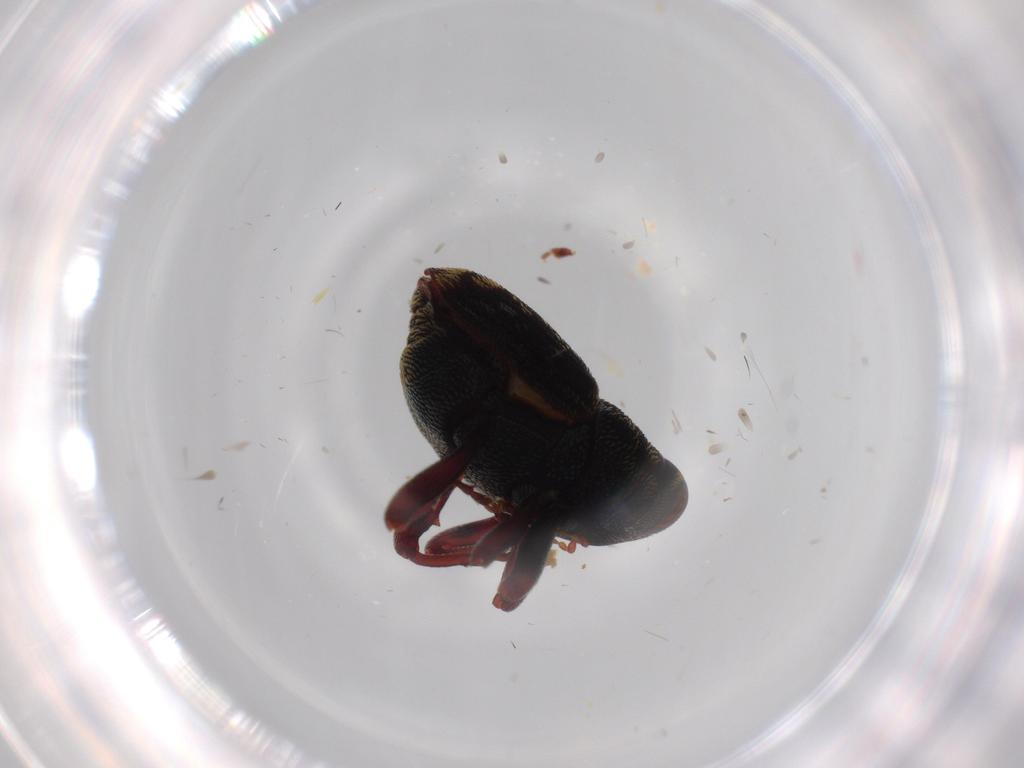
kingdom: Animalia
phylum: Arthropoda
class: Insecta
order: Coleoptera
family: Curculionidae
